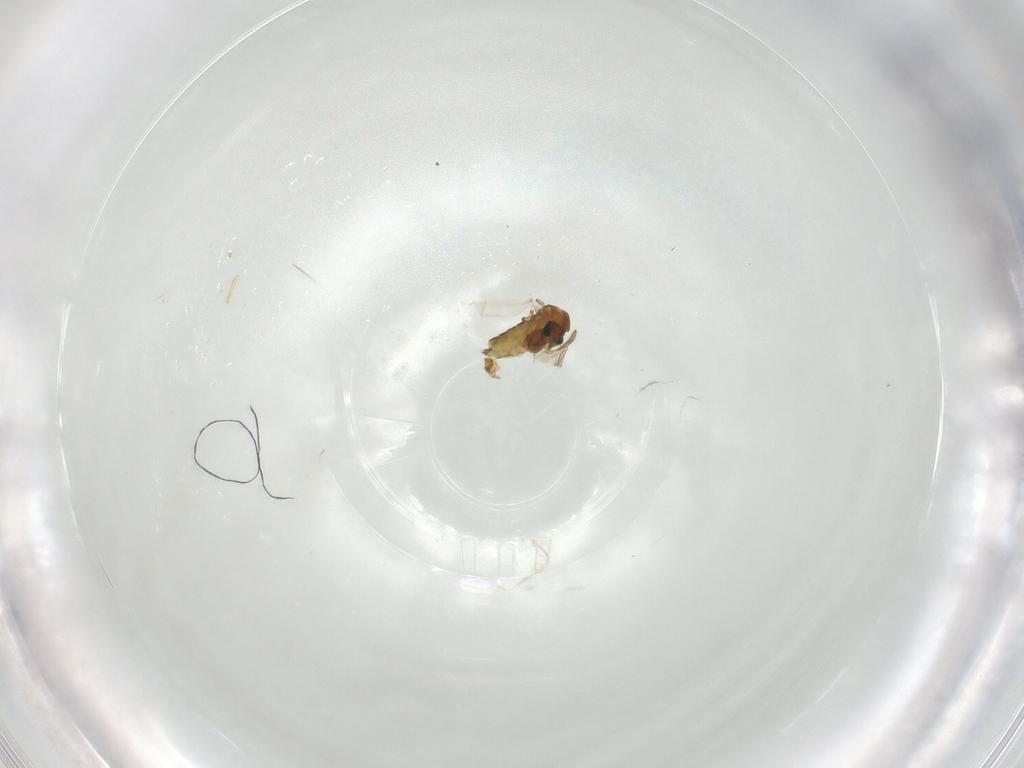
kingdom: Animalia
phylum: Arthropoda
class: Insecta
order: Diptera
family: Chironomidae
